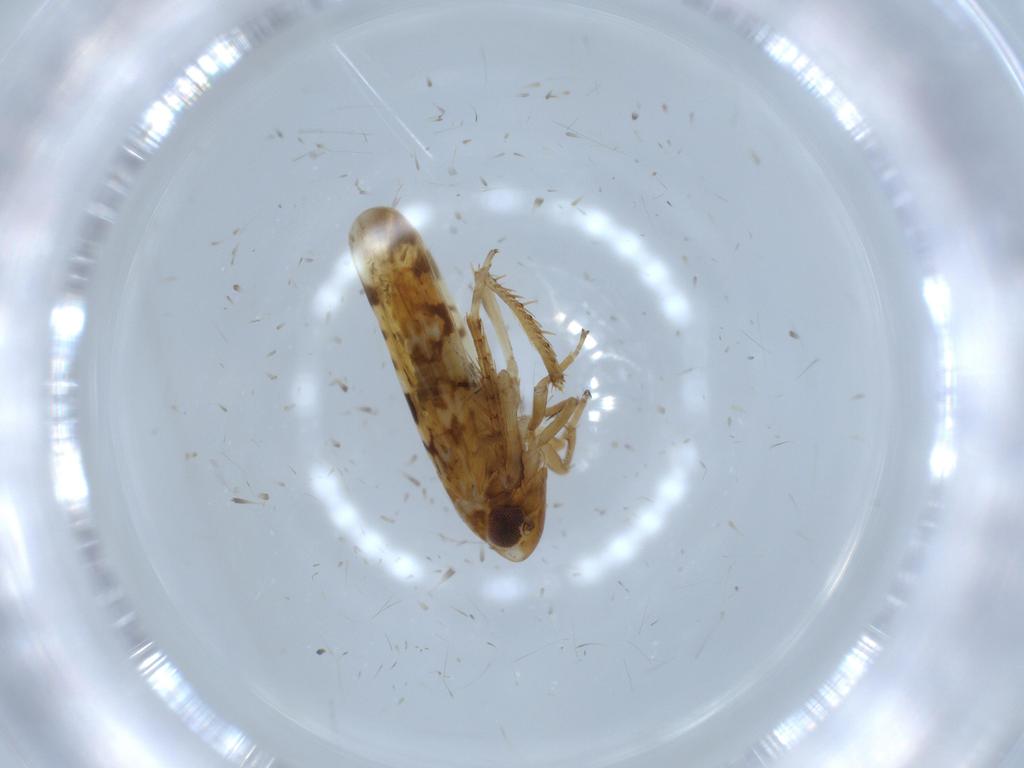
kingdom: Animalia
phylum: Arthropoda
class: Insecta
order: Hemiptera
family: Cicadellidae
